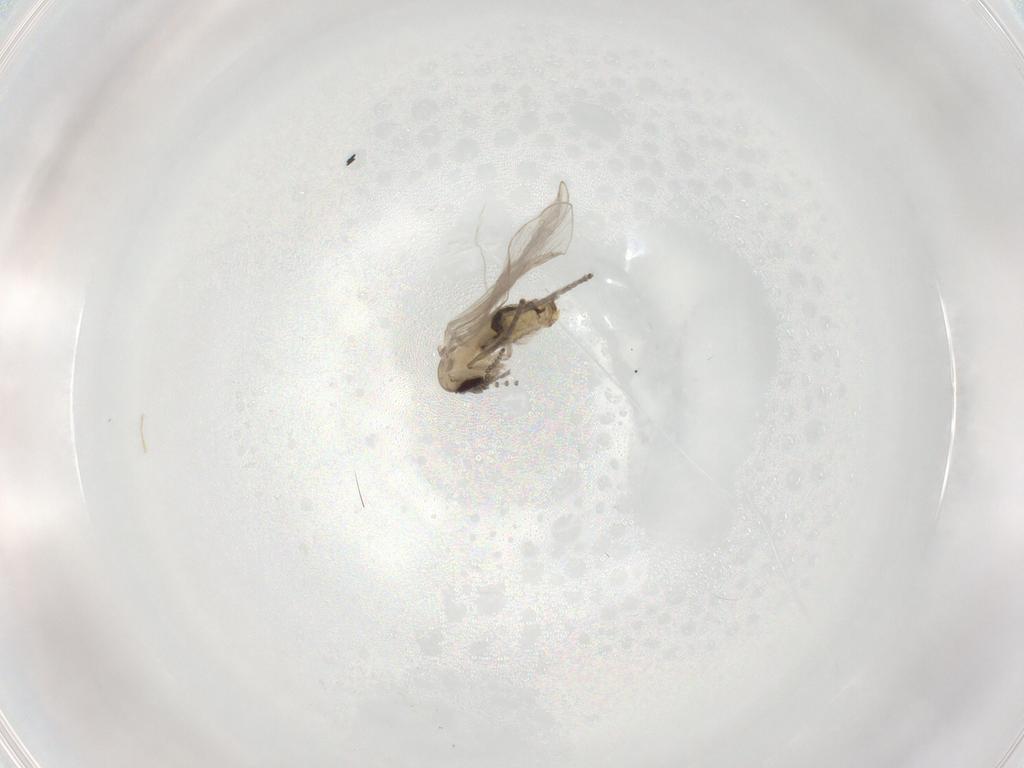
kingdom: Animalia
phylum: Arthropoda
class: Insecta
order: Diptera
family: Psychodidae
